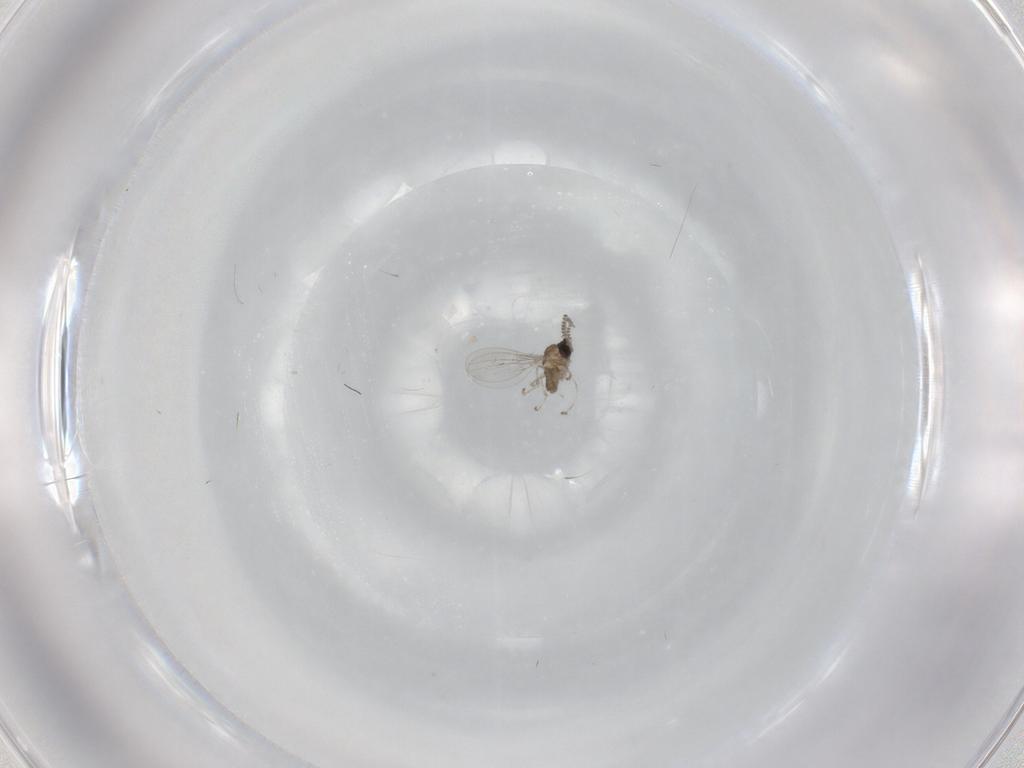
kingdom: Animalia
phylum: Arthropoda
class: Insecta
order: Diptera
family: Cecidomyiidae
